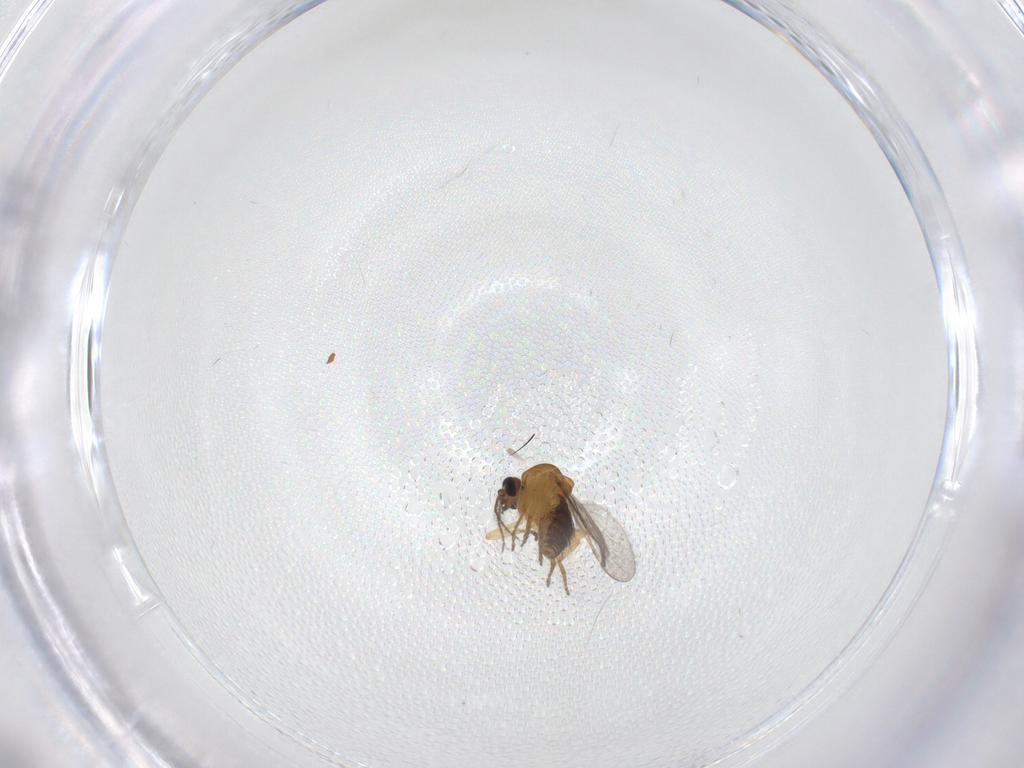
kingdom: Animalia
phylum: Arthropoda
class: Insecta
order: Diptera
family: Ceratopogonidae
